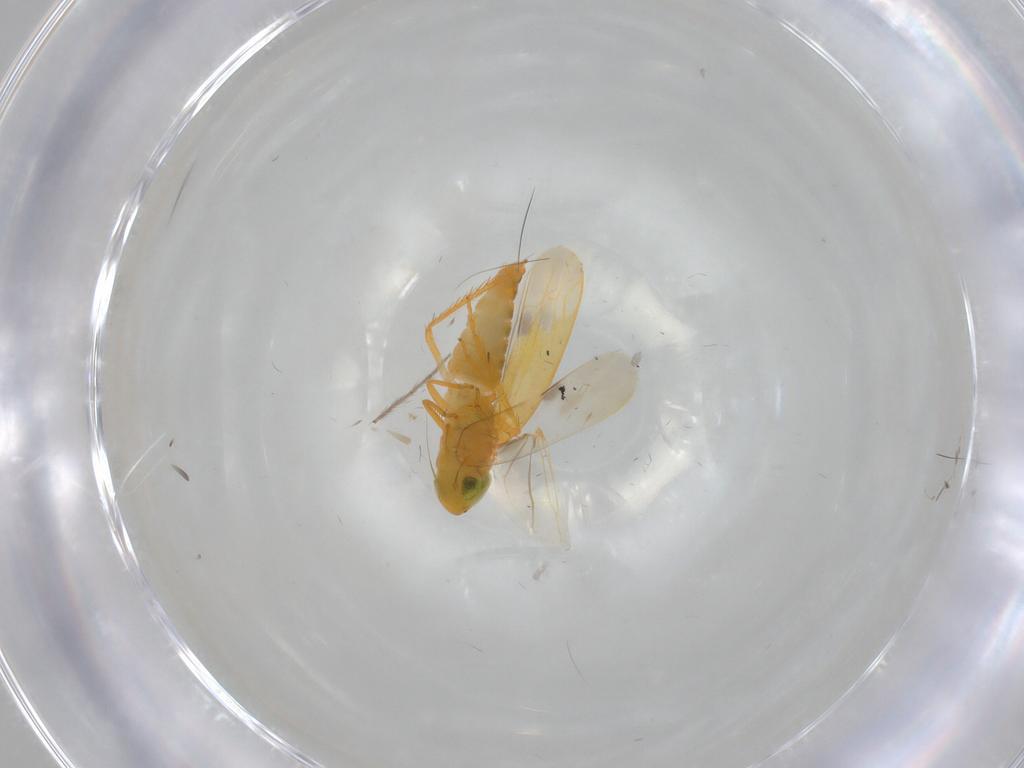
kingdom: Animalia
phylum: Arthropoda
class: Insecta
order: Hemiptera
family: Cicadellidae
